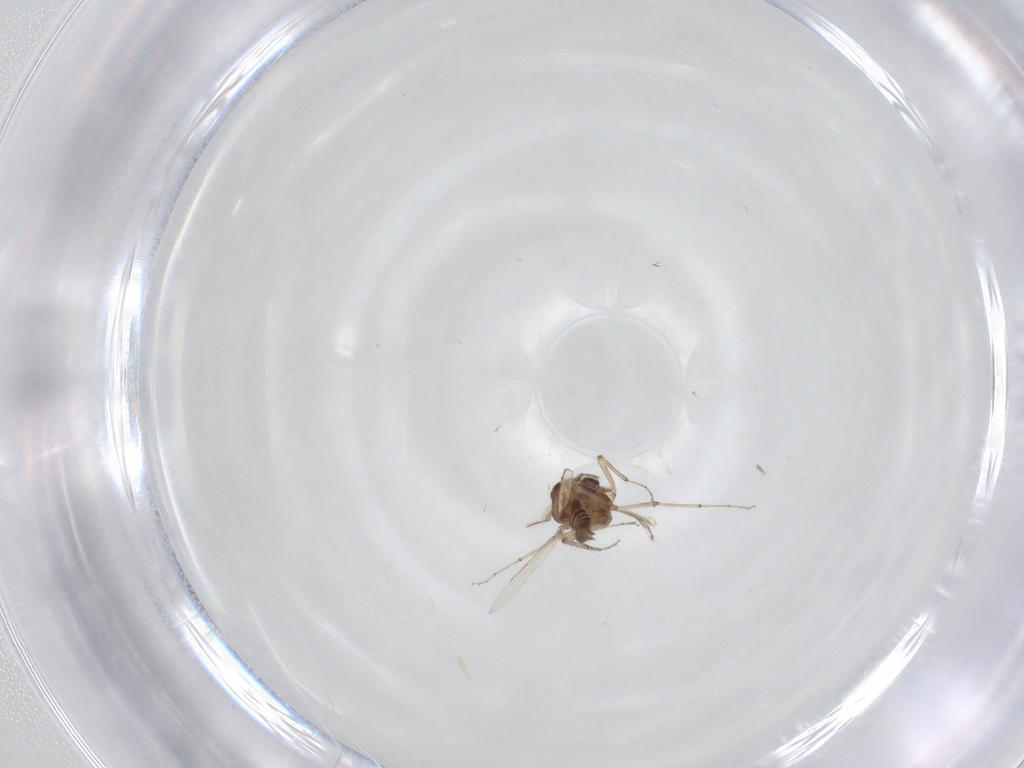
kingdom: Animalia
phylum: Arthropoda
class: Insecta
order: Diptera
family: Ceratopogonidae
